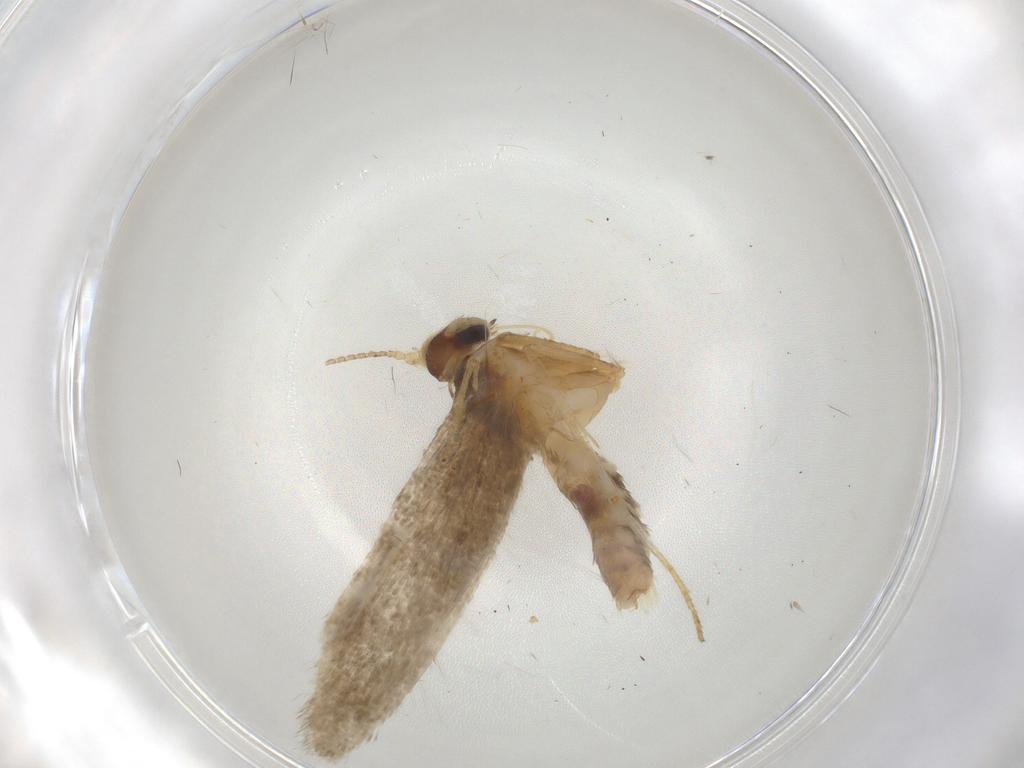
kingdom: Animalia
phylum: Arthropoda
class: Insecta
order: Lepidoptera
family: Coleophoridae
